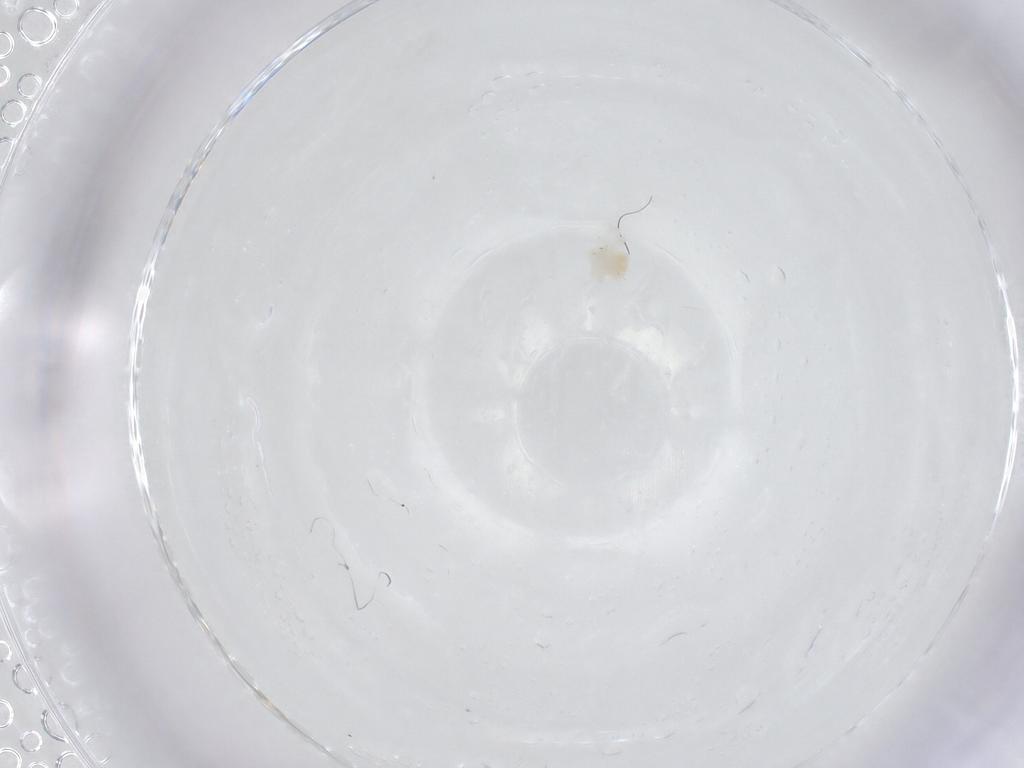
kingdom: Animalia
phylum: Arthropoda
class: Arachnida
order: Trombidiformes
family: Anystidae
